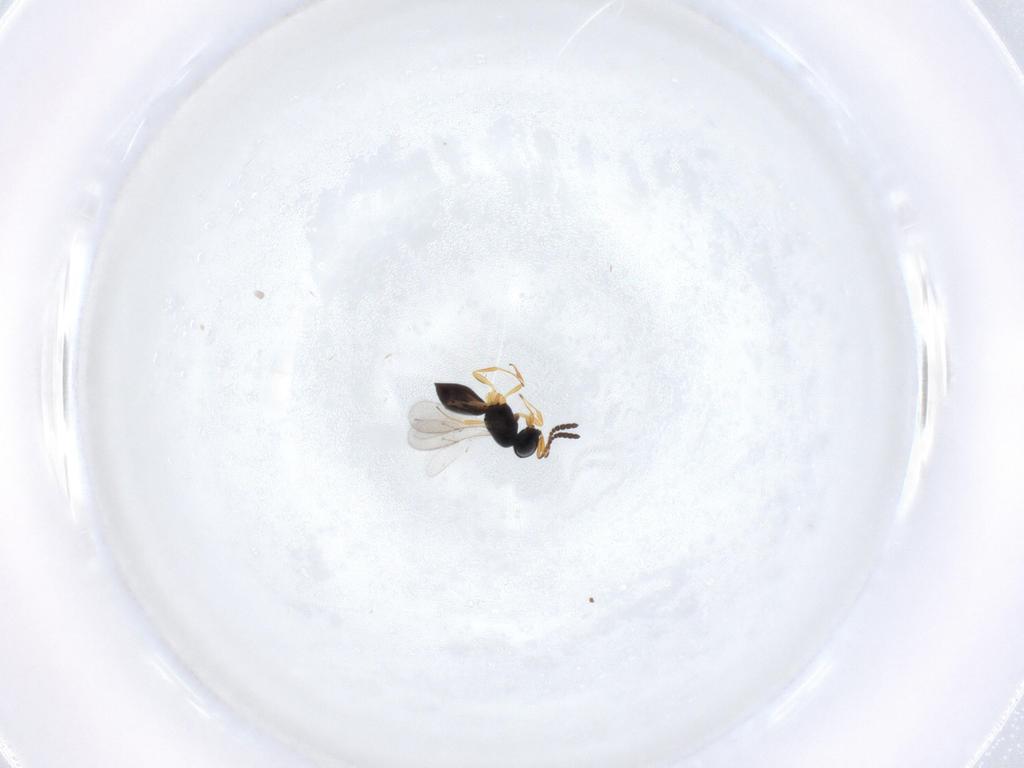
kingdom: Animalia
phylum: Arthropoda
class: Insecta
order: Hymenoptera
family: Scelionidae
